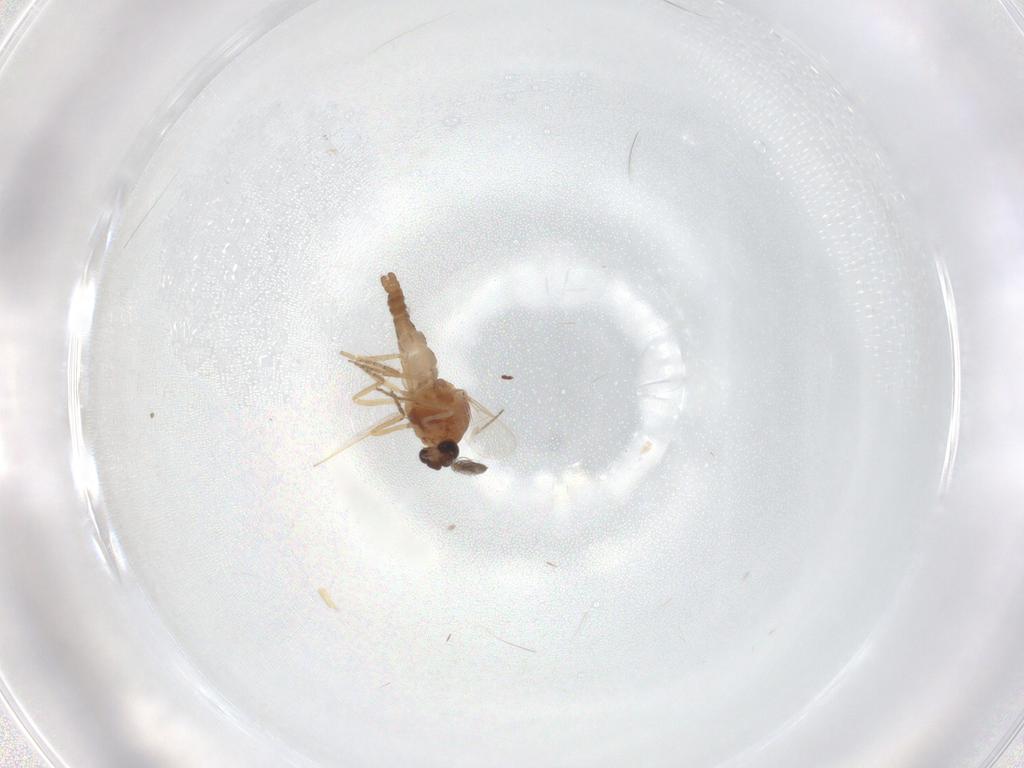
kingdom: Animalia
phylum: Arthropoda
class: Insecta
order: Diptera
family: Ceratopogonidae
